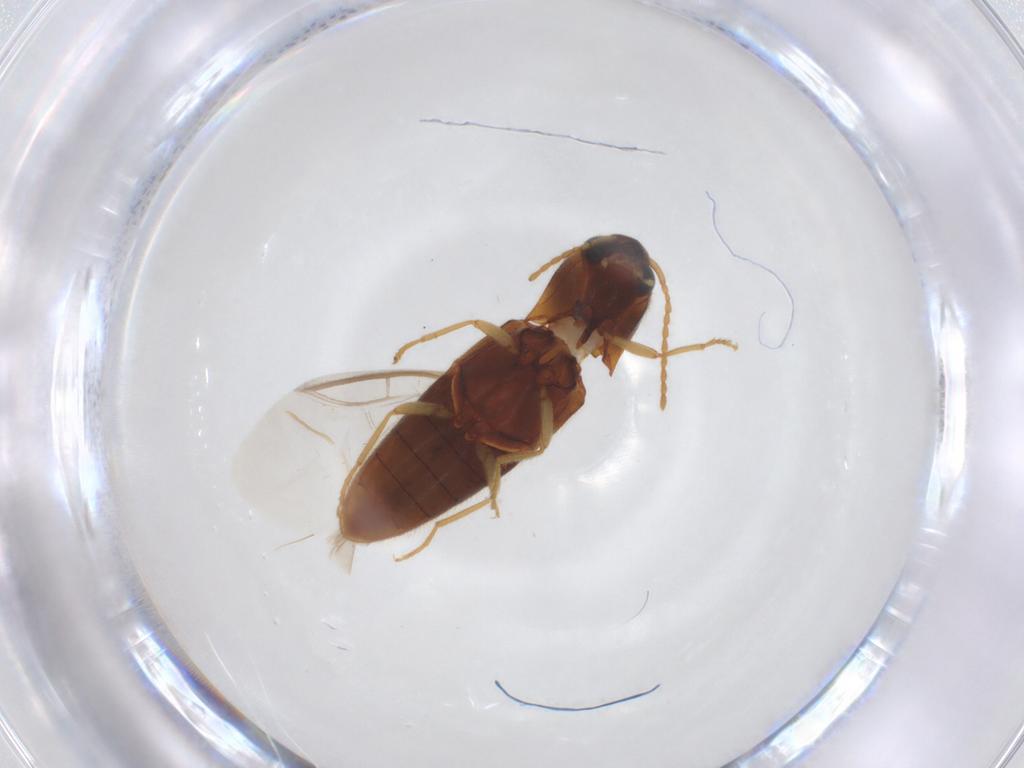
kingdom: Animalia
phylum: Arthropoda
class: Insecta
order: Coleoptera
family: Elateridae
